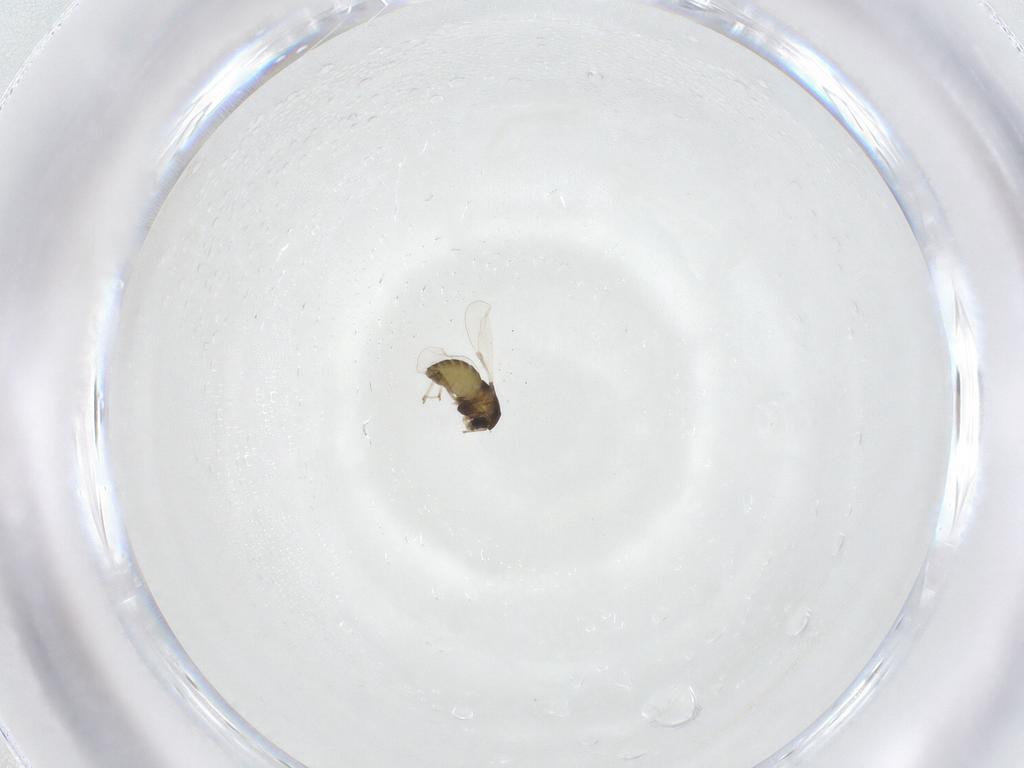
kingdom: Animalia
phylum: Arthropoda
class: Insecta
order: Diptera
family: Chironomidae
